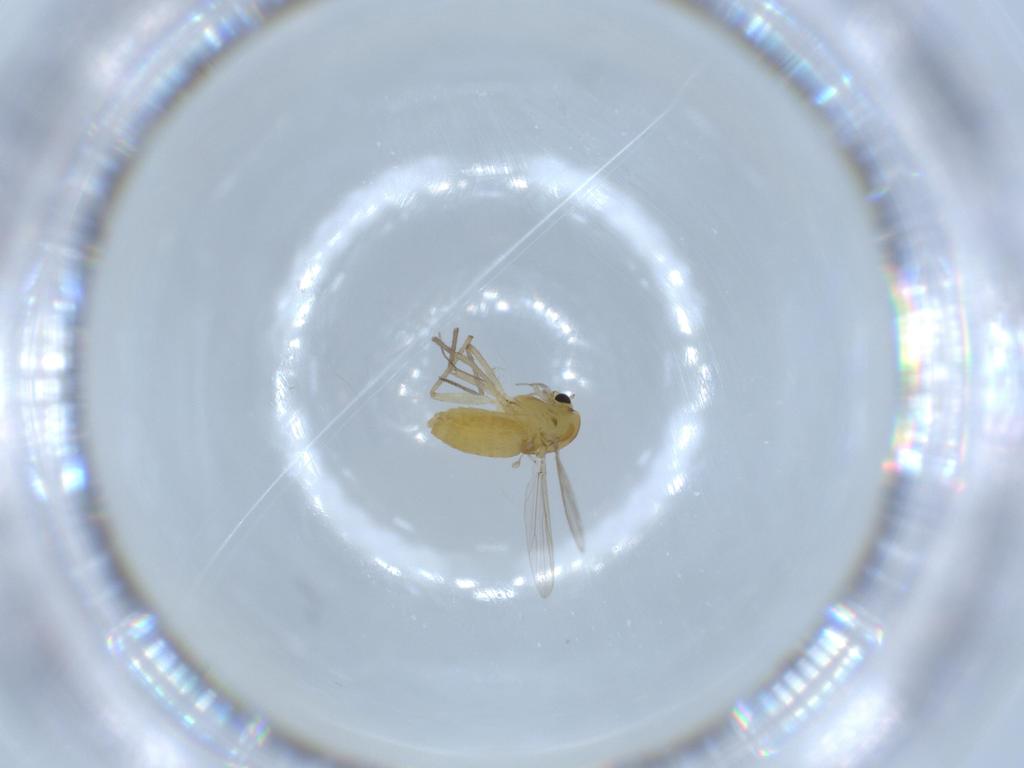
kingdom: Animalia
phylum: Arthropoda
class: Insecta
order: Diptera
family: Chironomidae
